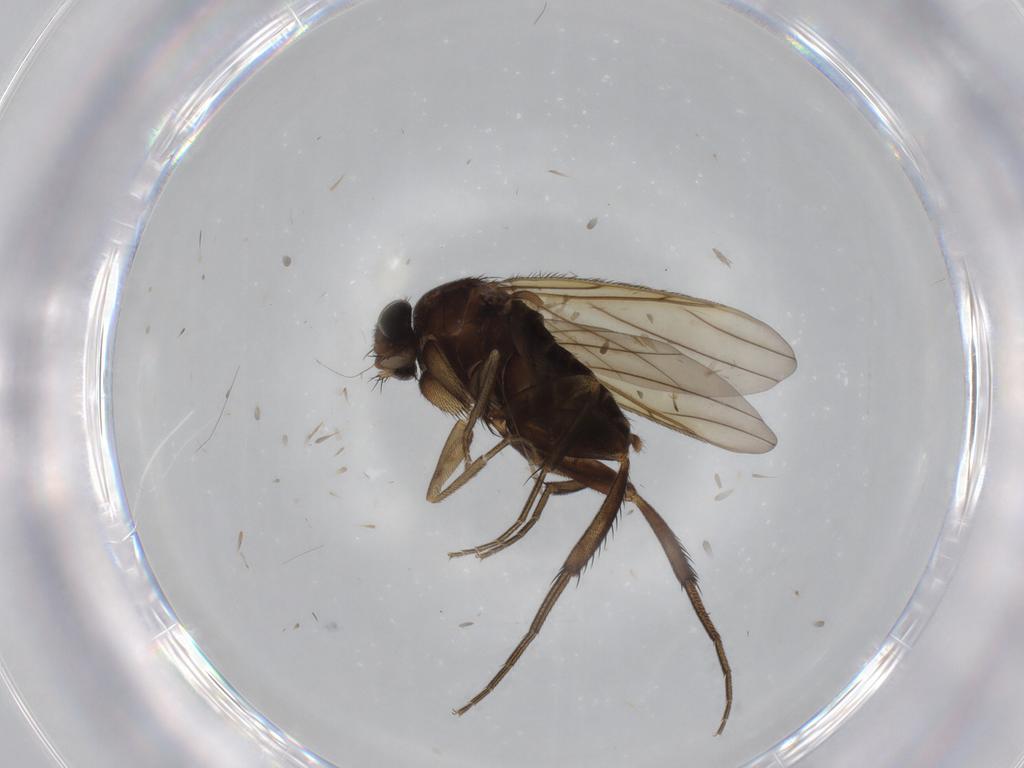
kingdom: Animalia
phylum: Arthropoda
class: Insecta
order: Diptera
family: Phoridae
